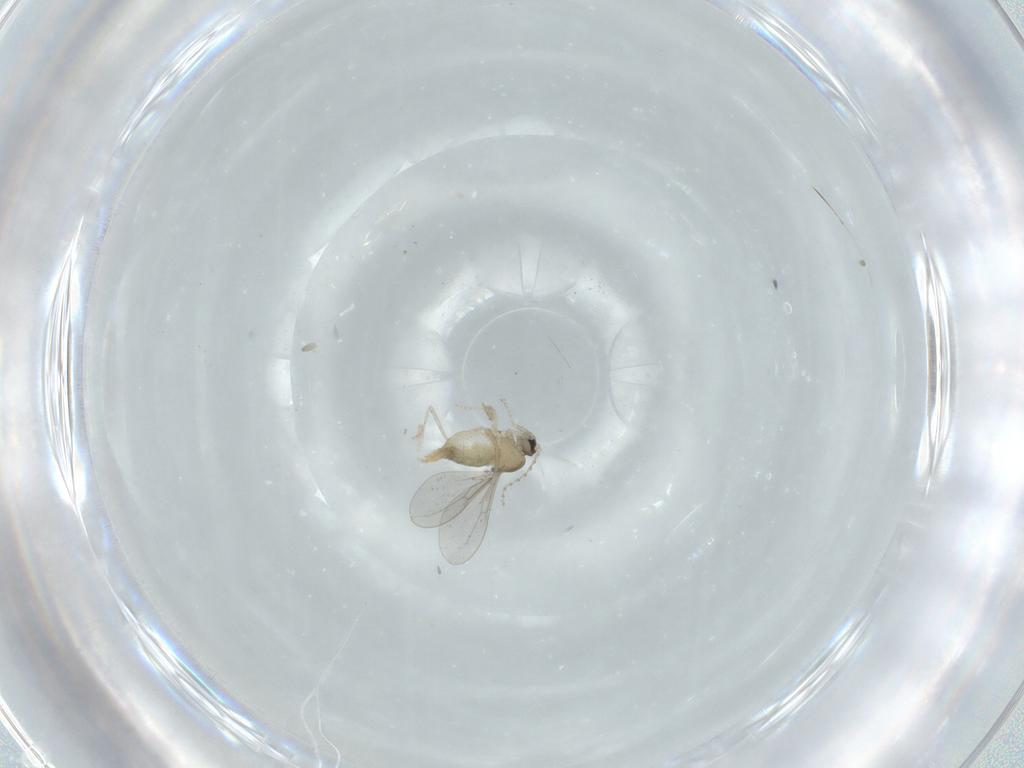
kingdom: Animalia
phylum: Arthropoda
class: Insecta
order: Diptera
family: Cecidomyiidae
